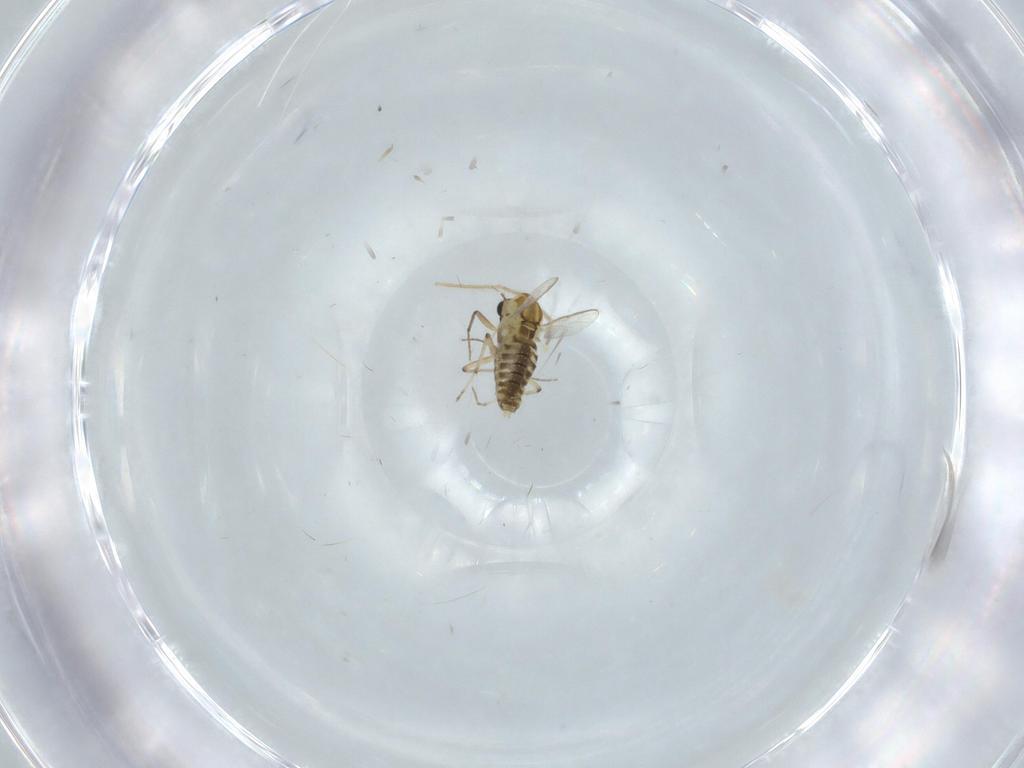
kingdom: Animalia
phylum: Arthropoda
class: Insecta
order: Diptera
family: Chironomidae
